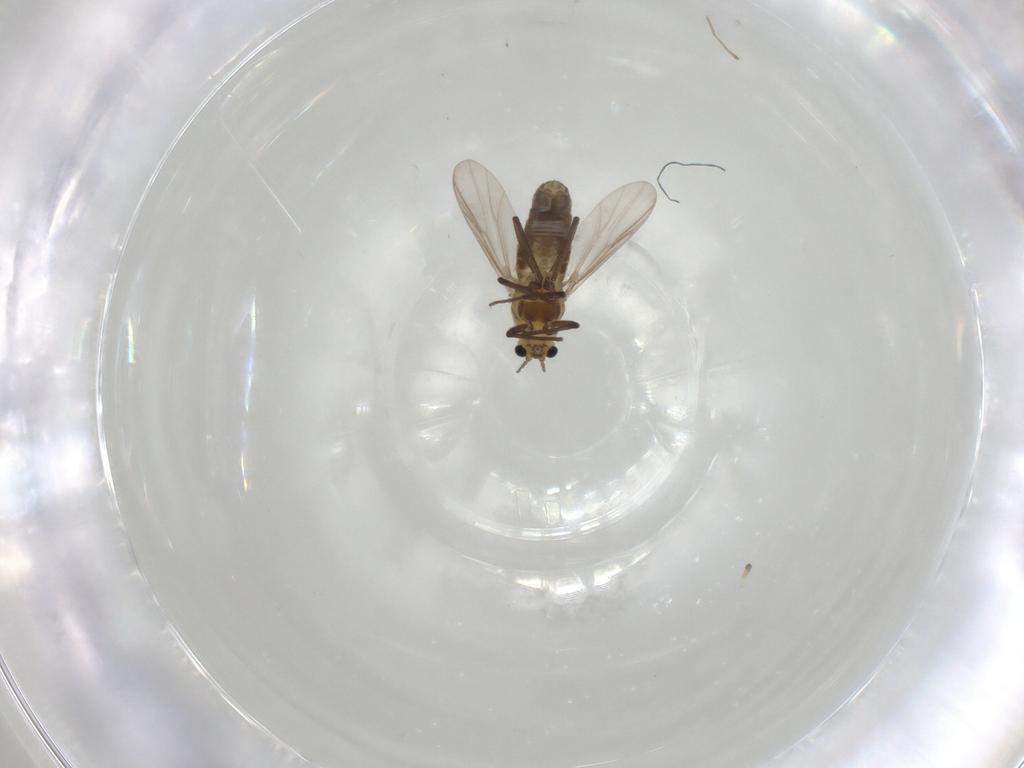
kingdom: Animalia
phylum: Arthropoda
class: Insecta
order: Diptera
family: Chironomidae
